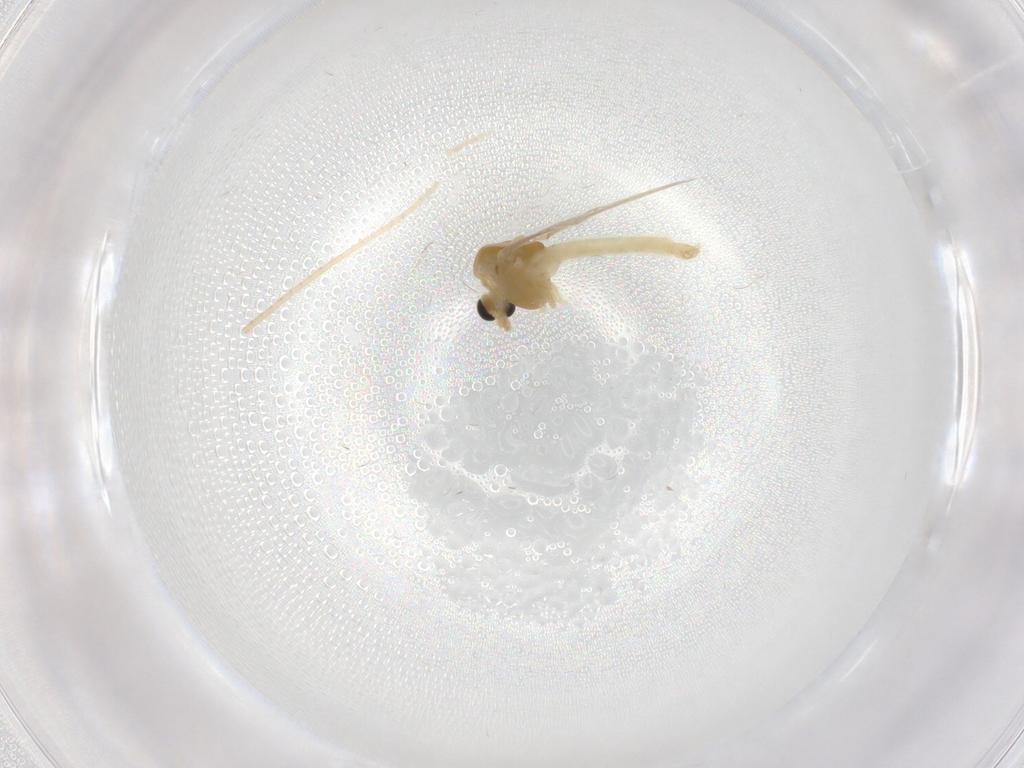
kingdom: Animalia
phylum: Arthropoda
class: Insecta
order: Diptera
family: Chironomidae
